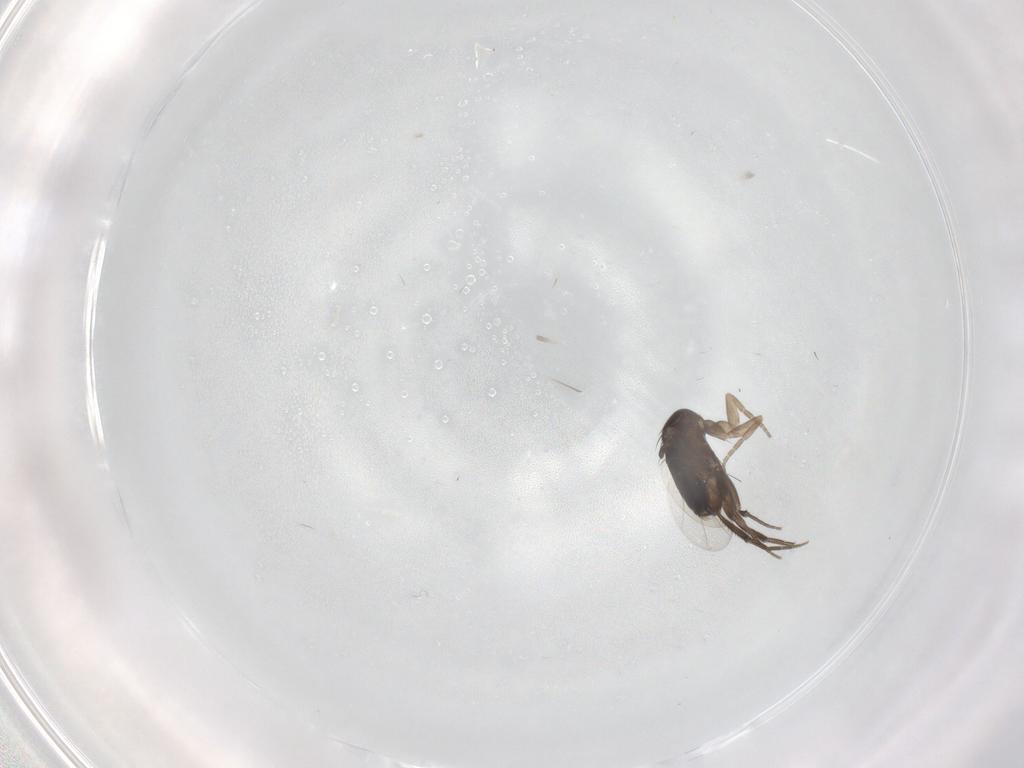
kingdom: Animalia
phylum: Arthropoda
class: Insecta
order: Diptera
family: Phoridae
